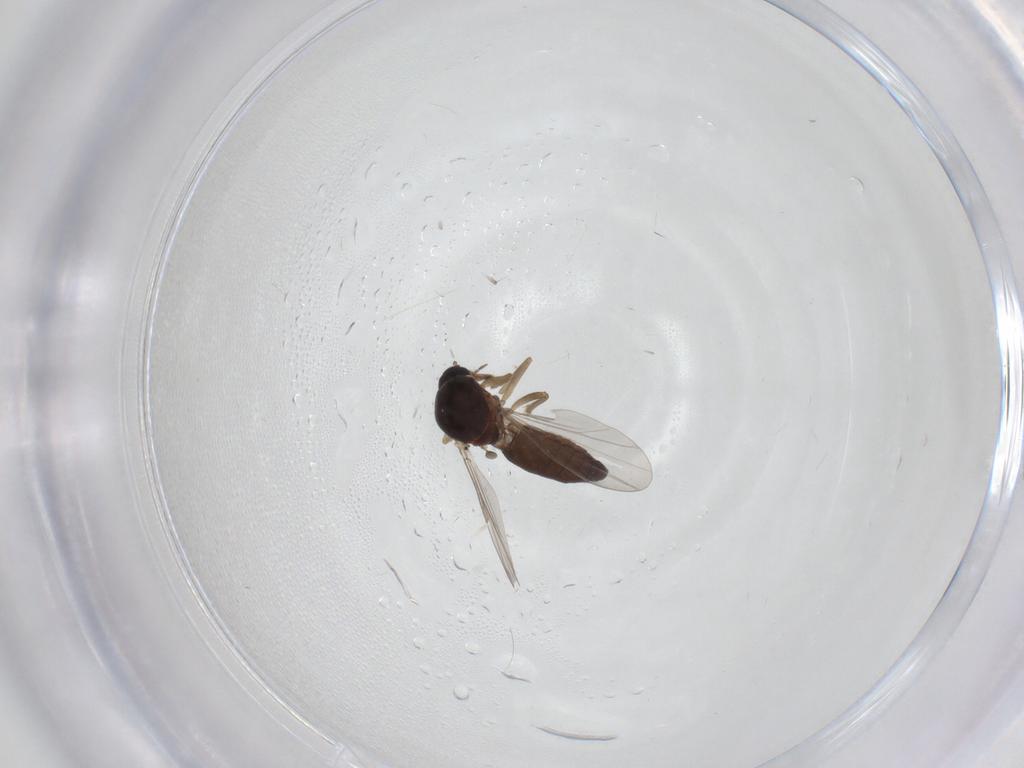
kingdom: Animalia
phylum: Arthropoda
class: Insecta
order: Diptera
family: Ceratopogonidae
